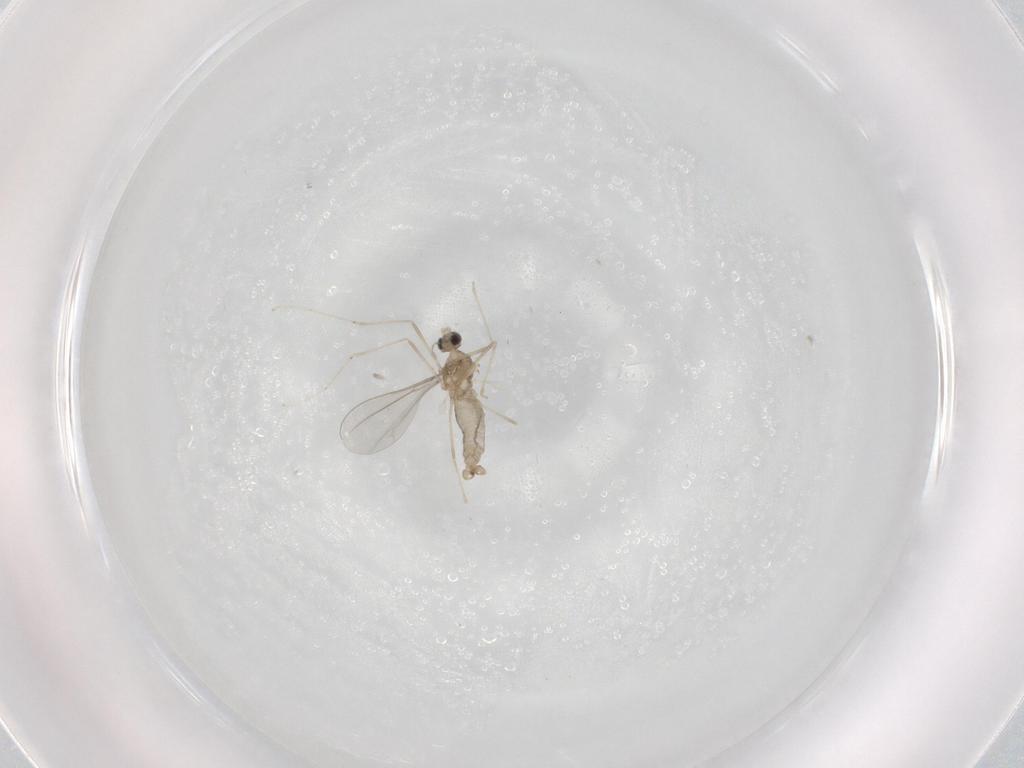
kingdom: Animalia
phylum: Arthropoda
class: Insecta
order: Diptera
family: Cecidomyiidae
